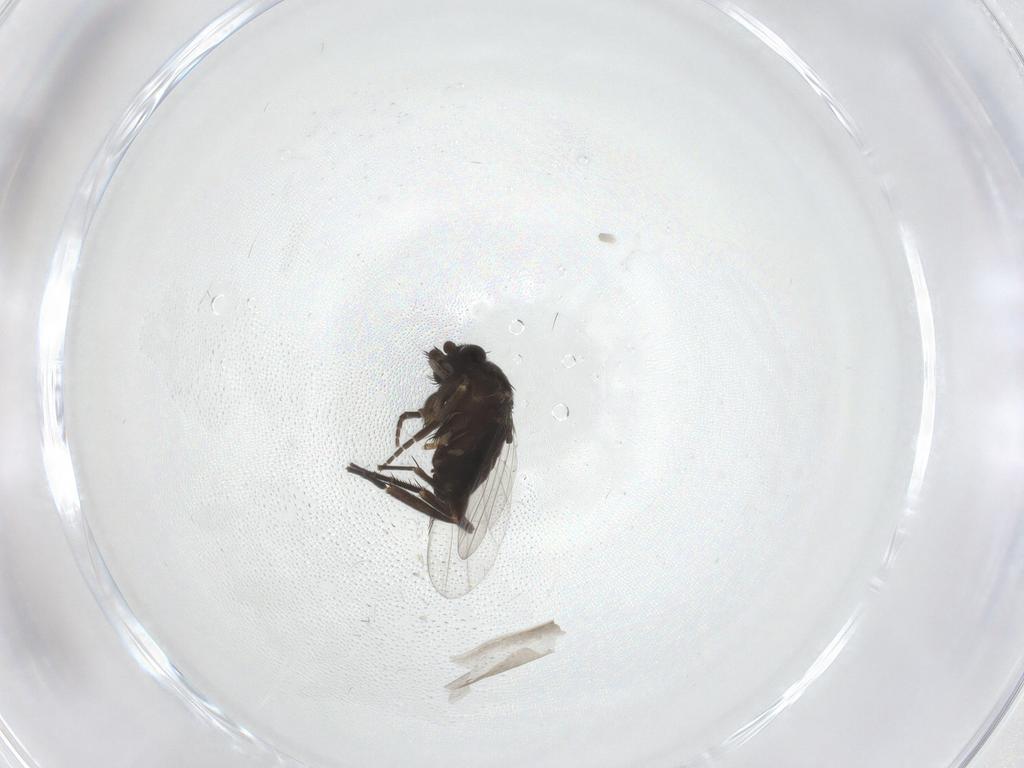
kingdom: Animalia
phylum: Arthropoda
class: Insecta
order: Diptera
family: Phoridae
